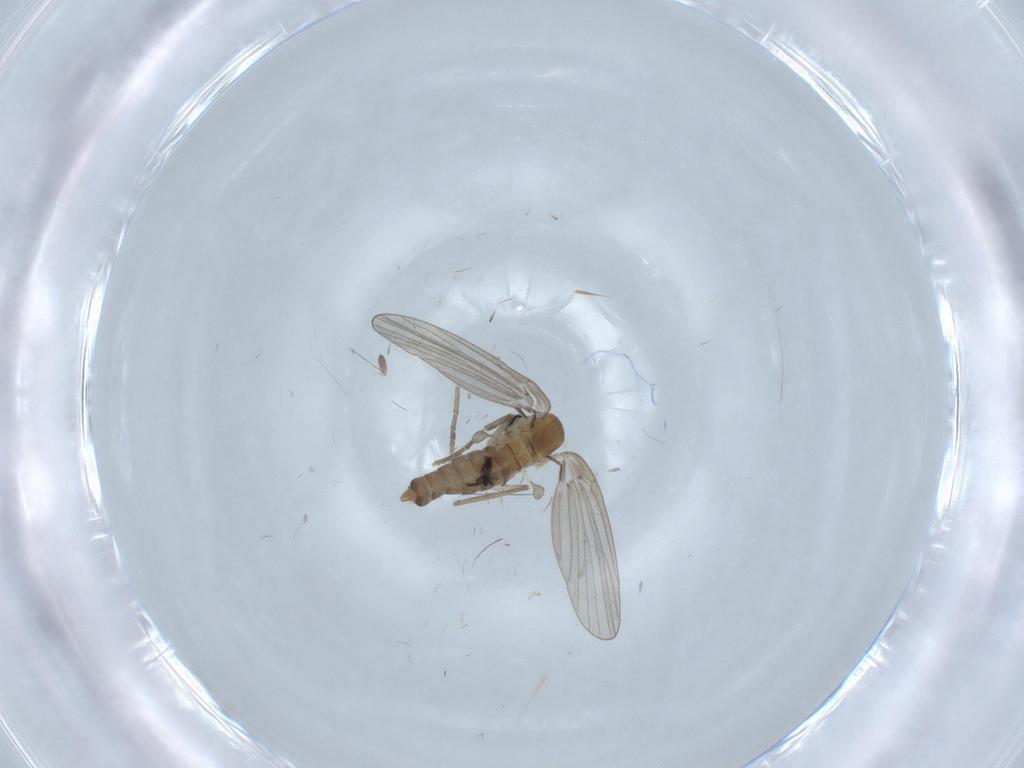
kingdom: Animalia
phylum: Arthropoda
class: Insecta
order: Diptera
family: Psychodidae
